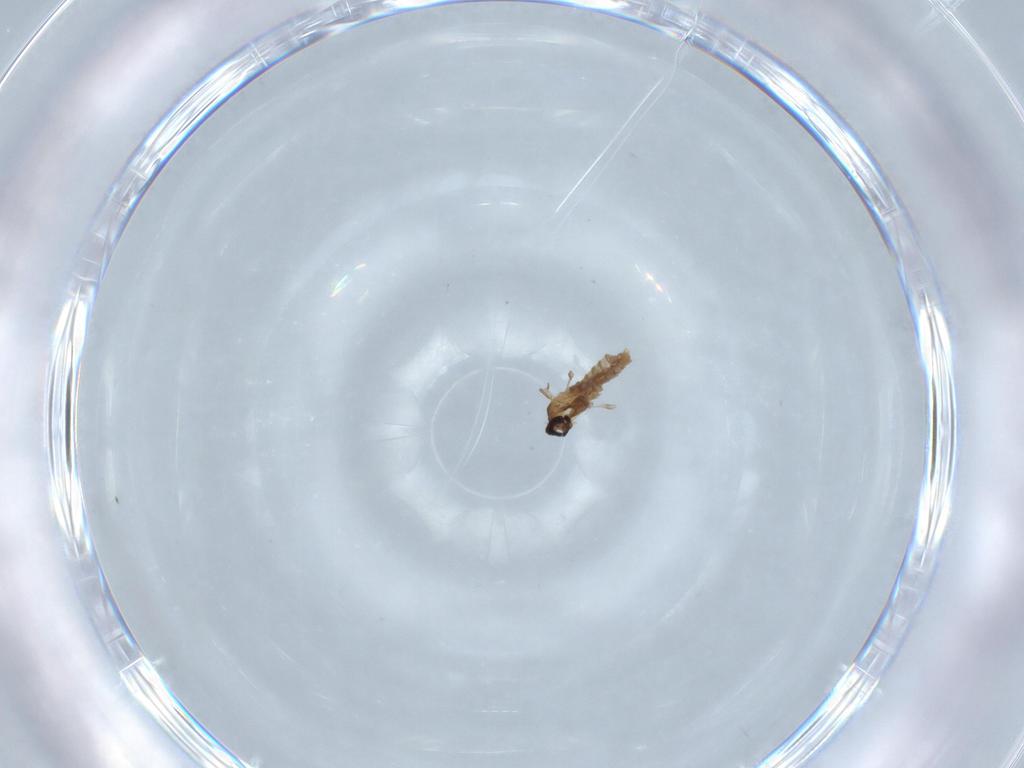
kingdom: Animalia
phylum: Arthropoda
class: Insecta
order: Diptera
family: Cecidomyiidae
